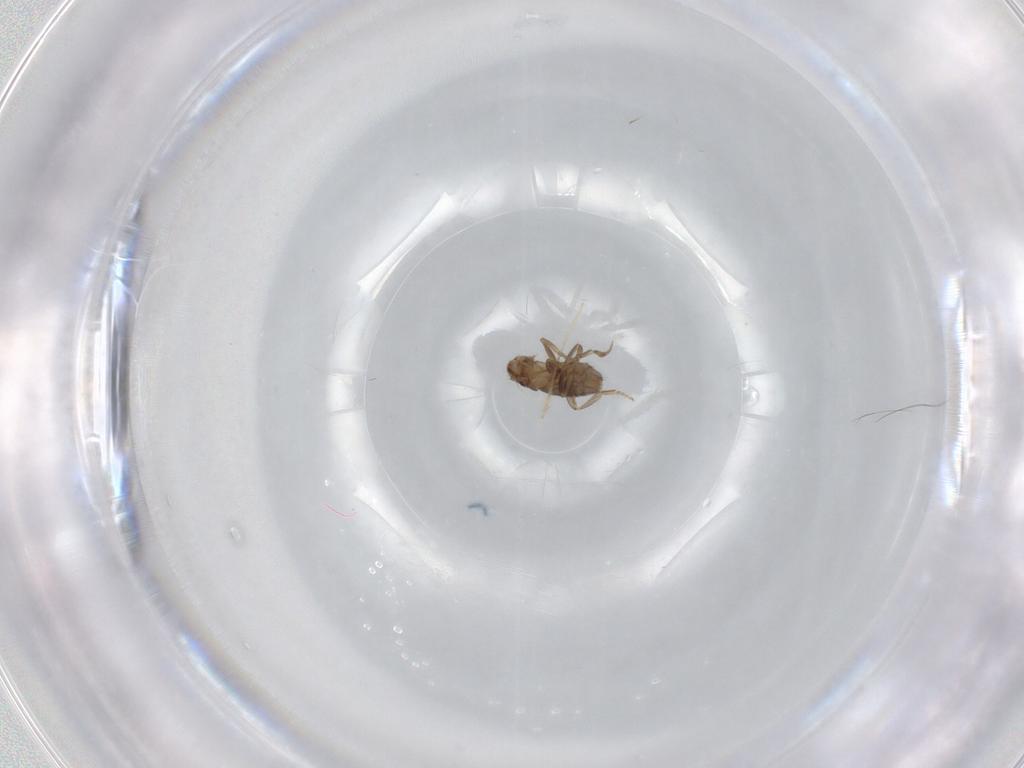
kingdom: Animalia
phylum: Arthropoda
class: Insecta
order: Diptera
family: Chironomidae
